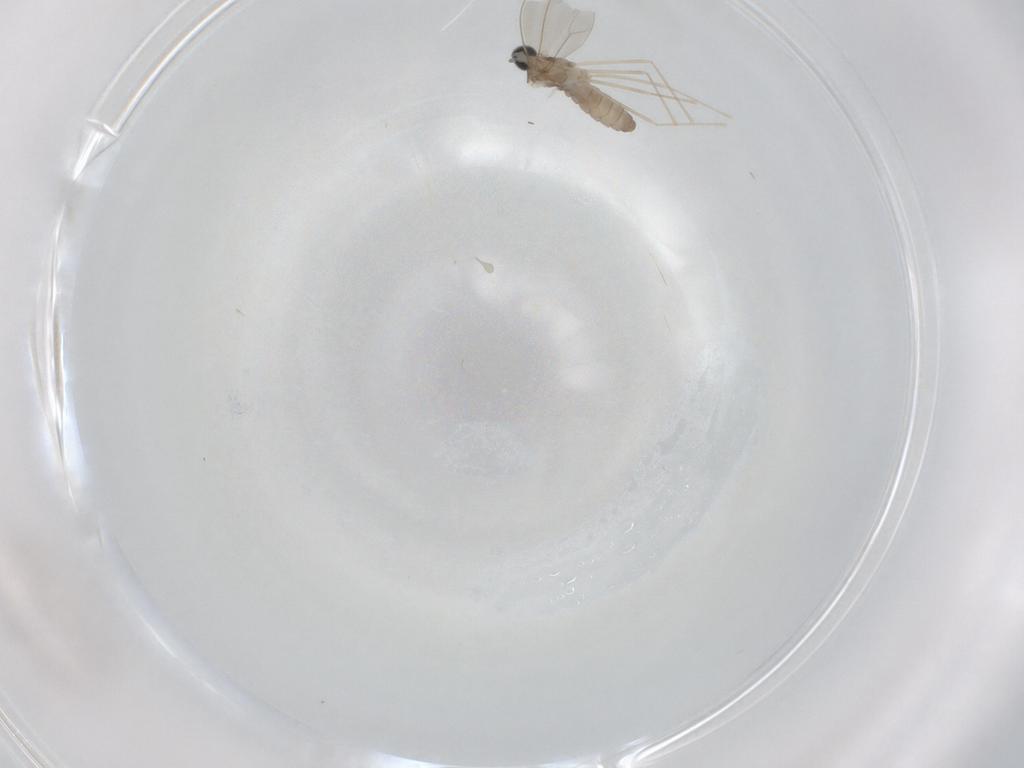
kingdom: Animalia
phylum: Arthropoda
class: Insecta
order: Diptera
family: Cecidomyiidae
